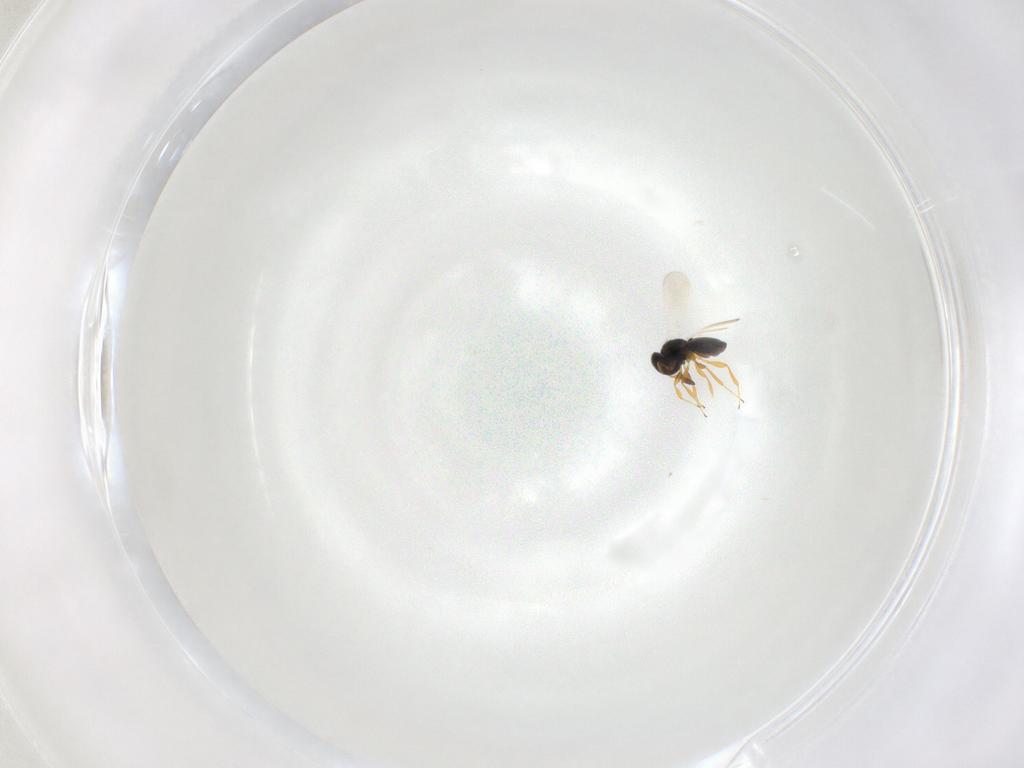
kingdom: Animalia
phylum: Arthropoda
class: Insecta
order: Hymenoptera
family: Platygastridae
